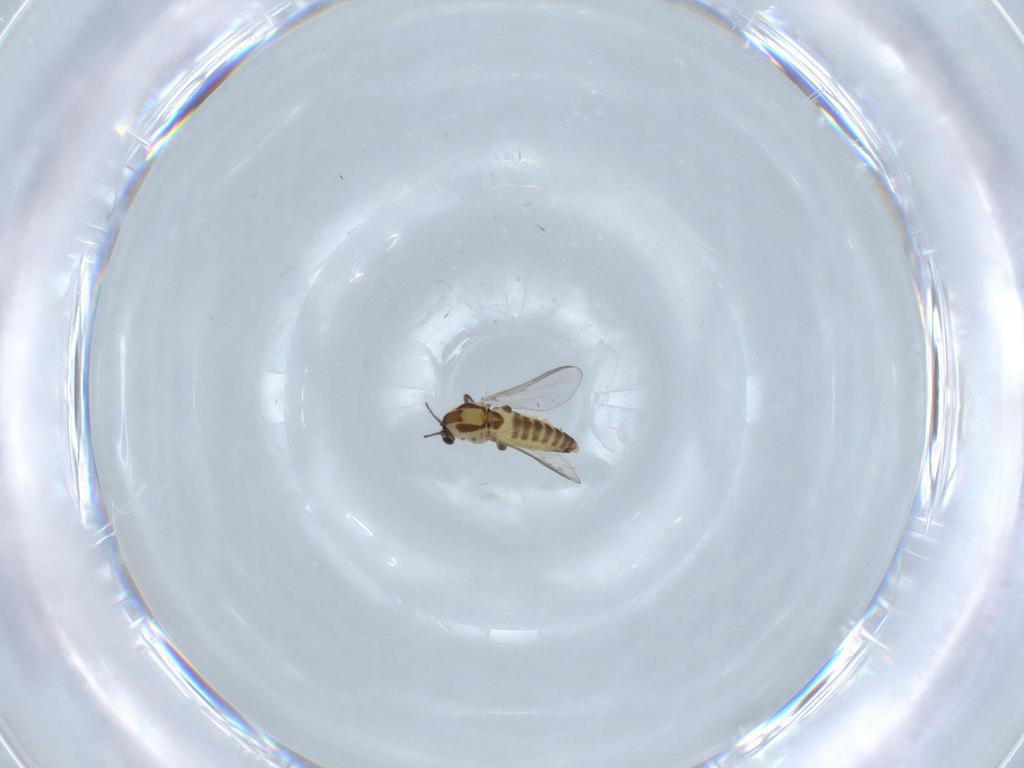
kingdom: Animalia
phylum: Arthropoda
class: Insecta
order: Diptera
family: Chironomidae
